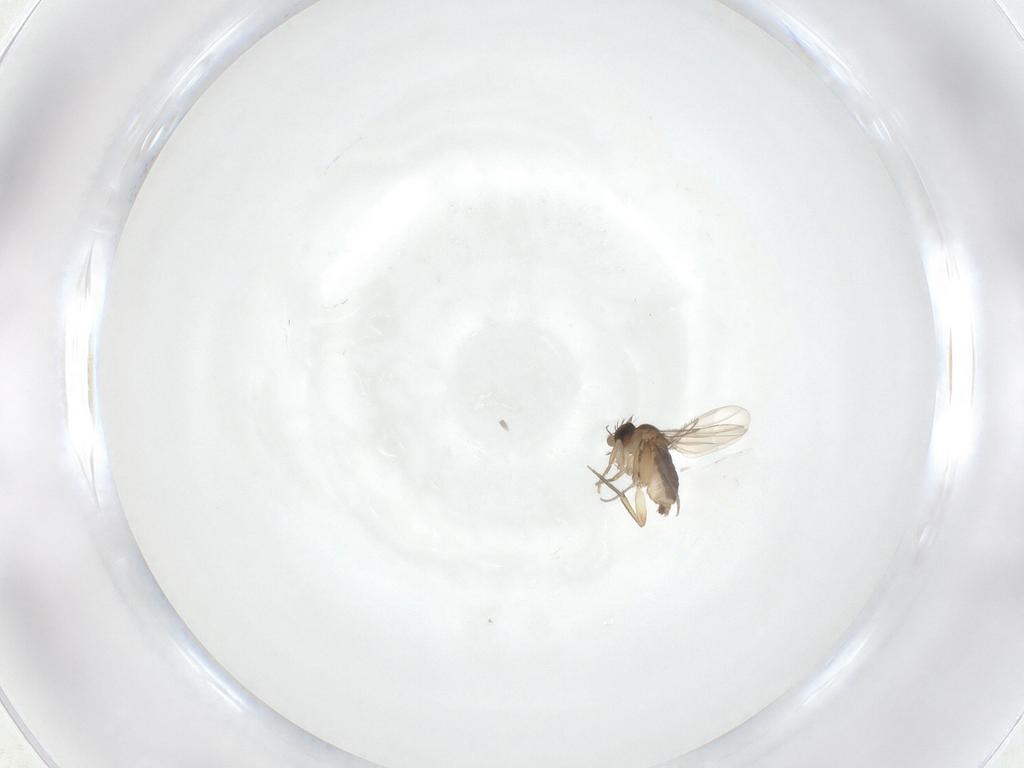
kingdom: Animalia
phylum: Arthropoda
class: Insecta
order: Diptera
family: Phoridae
